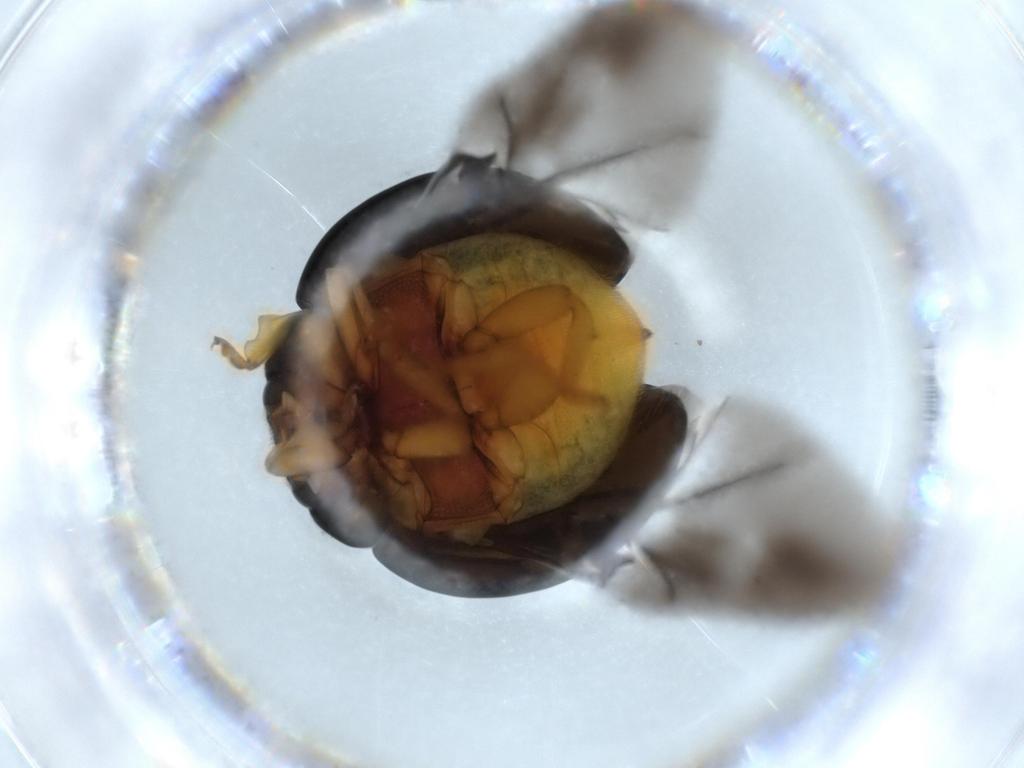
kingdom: Animalia
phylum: Arthropoda
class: Insecta
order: Coleoptera
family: Coccinellidae
